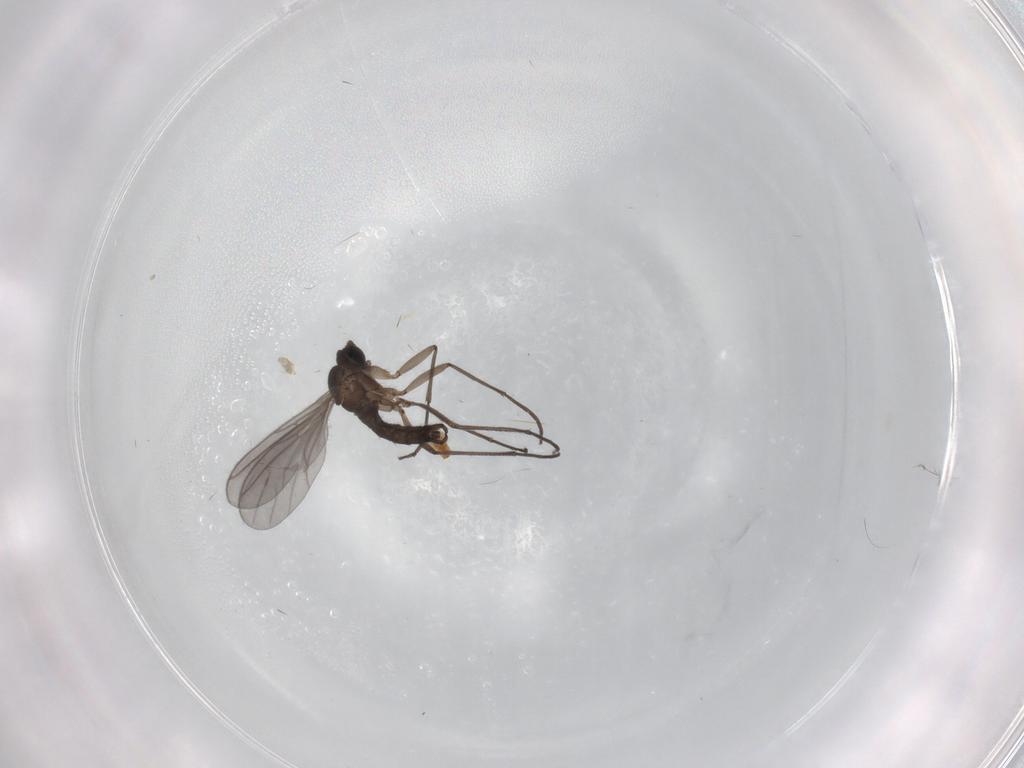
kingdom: Animalia
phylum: Arthropoda
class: Insecta
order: Diptera
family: Sciaridae
